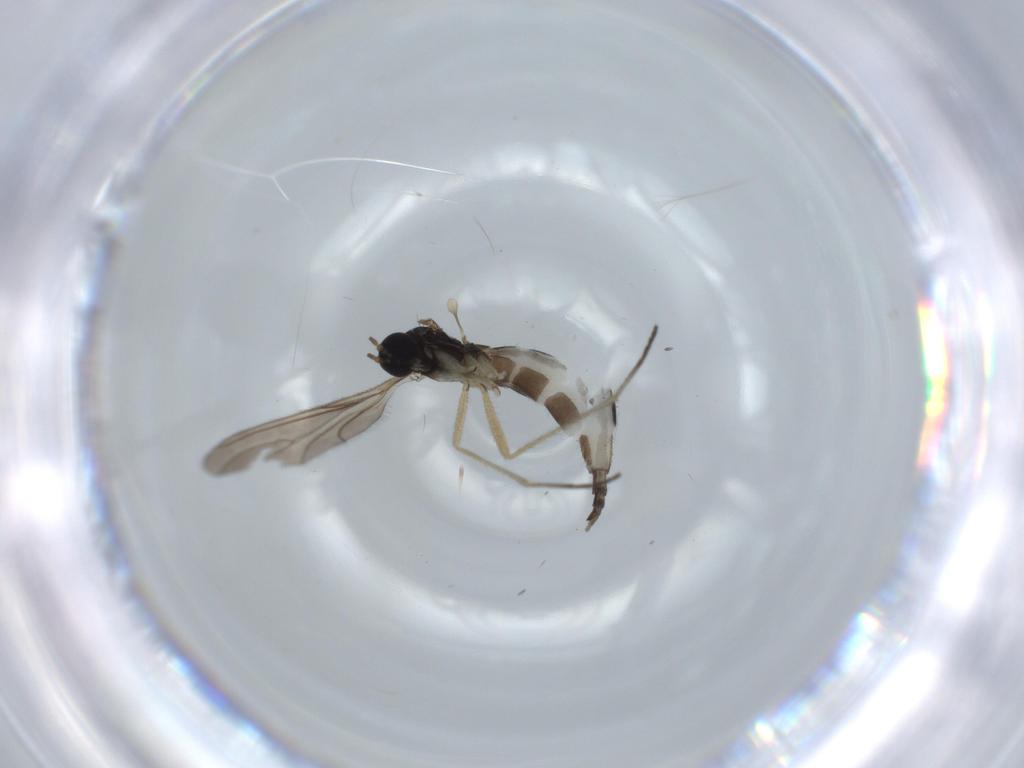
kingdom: Animalia
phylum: Arthropoda
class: Insecta
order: Diptera
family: Sciaridae
